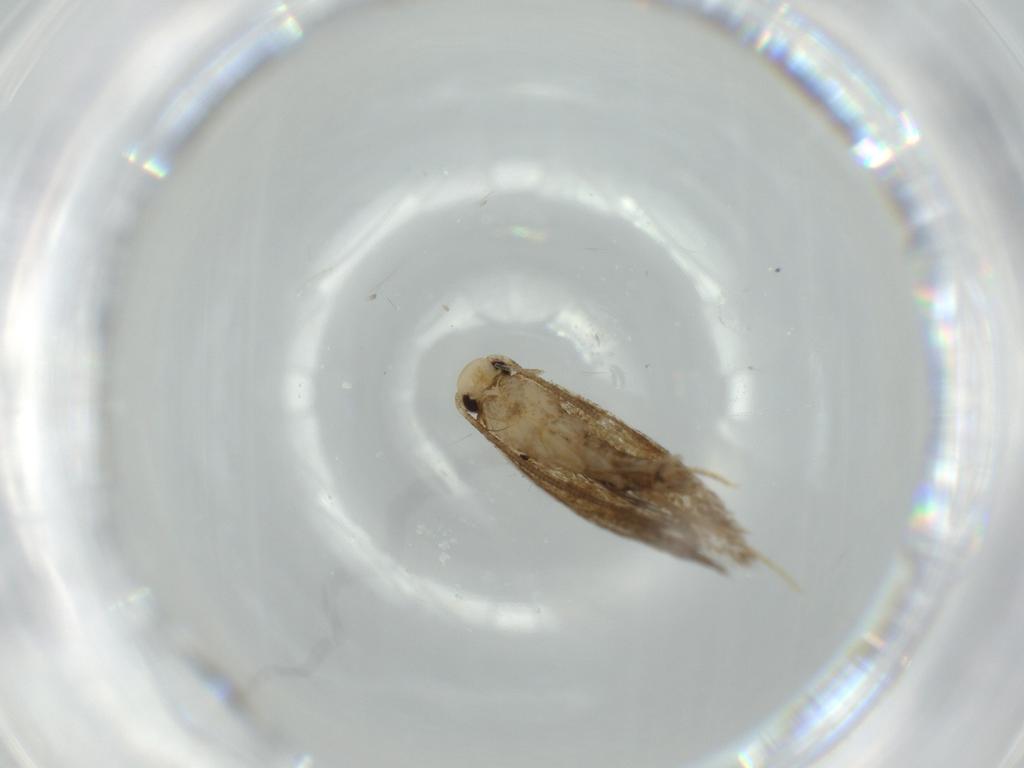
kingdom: Animalia
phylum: Arthropoda
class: Insecta
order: Lepidoptera
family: Tineidae
